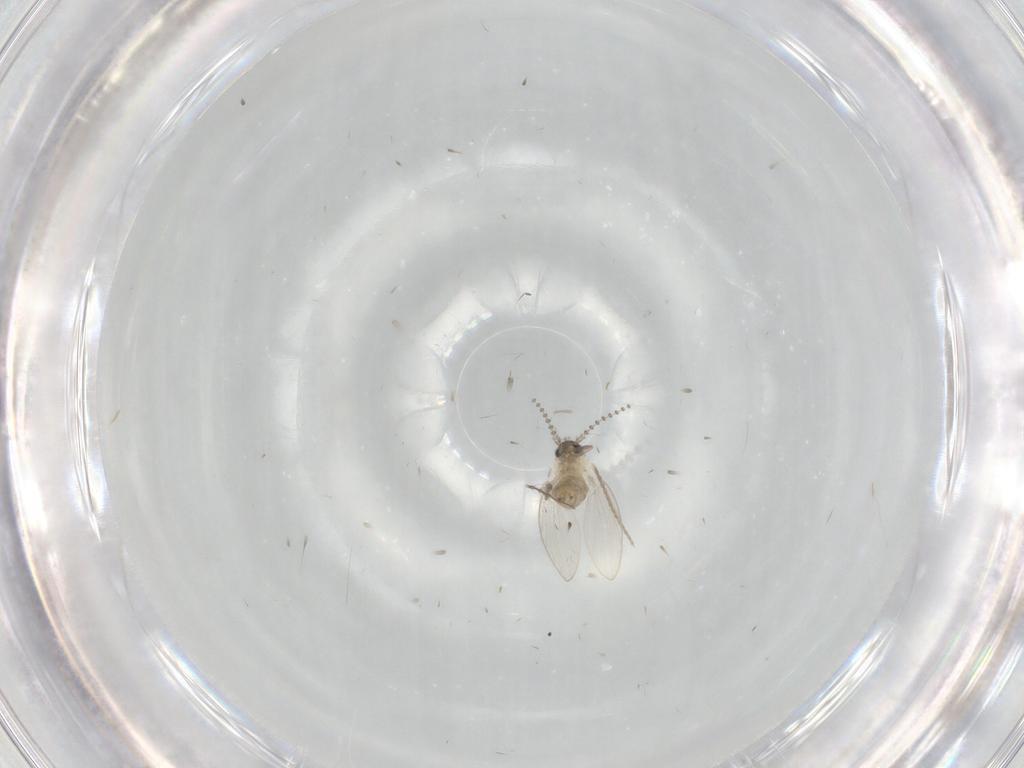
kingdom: Animalia
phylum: Arthropoda
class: Insecta
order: Diptera
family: Psychodidae
